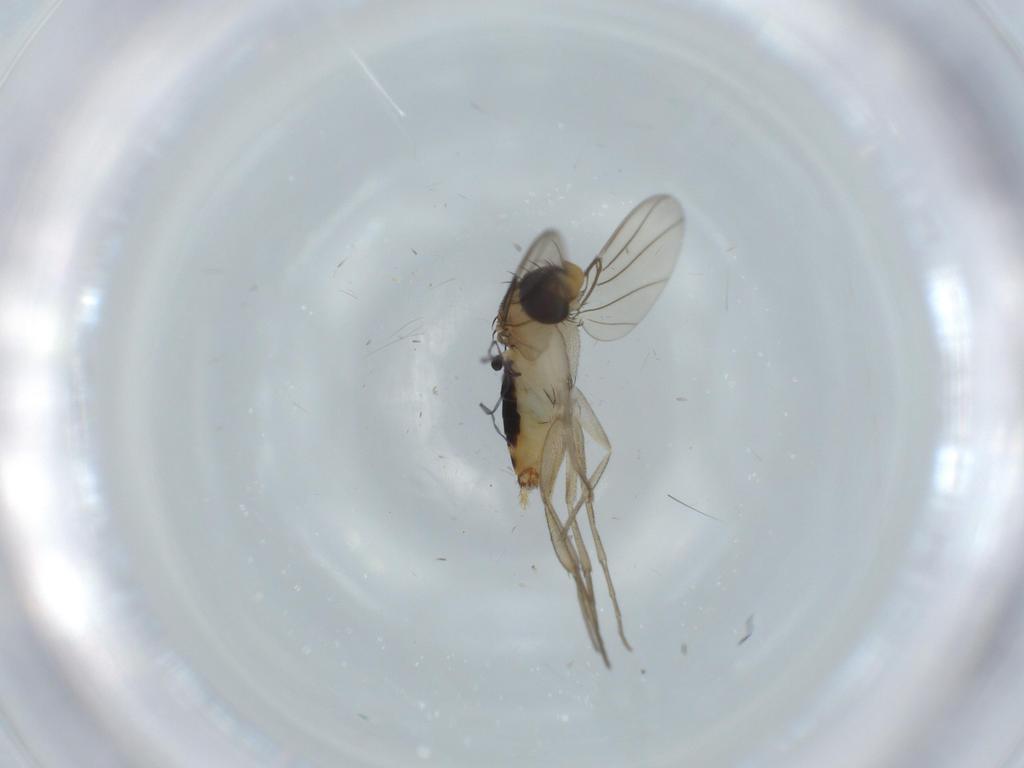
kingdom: Animalia
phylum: Arthropoda
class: Insecta
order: Diptera
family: Phoridae
